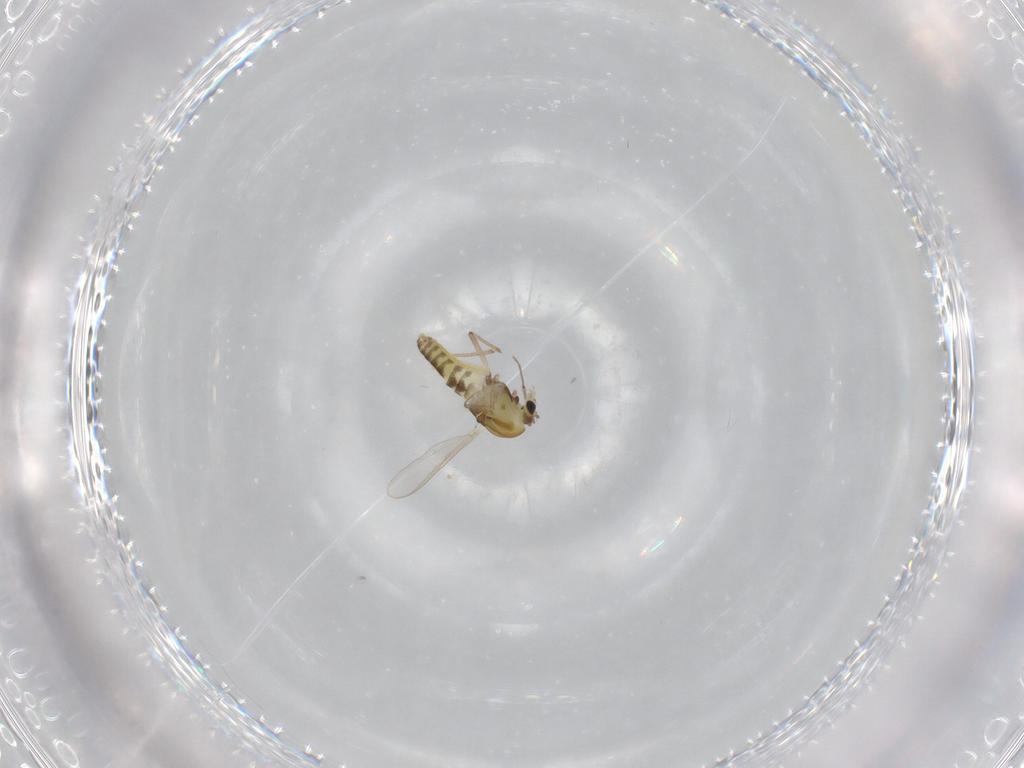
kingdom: Animalia
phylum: Arthropoda
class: Insecta
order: Diptera
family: Chironomidae
